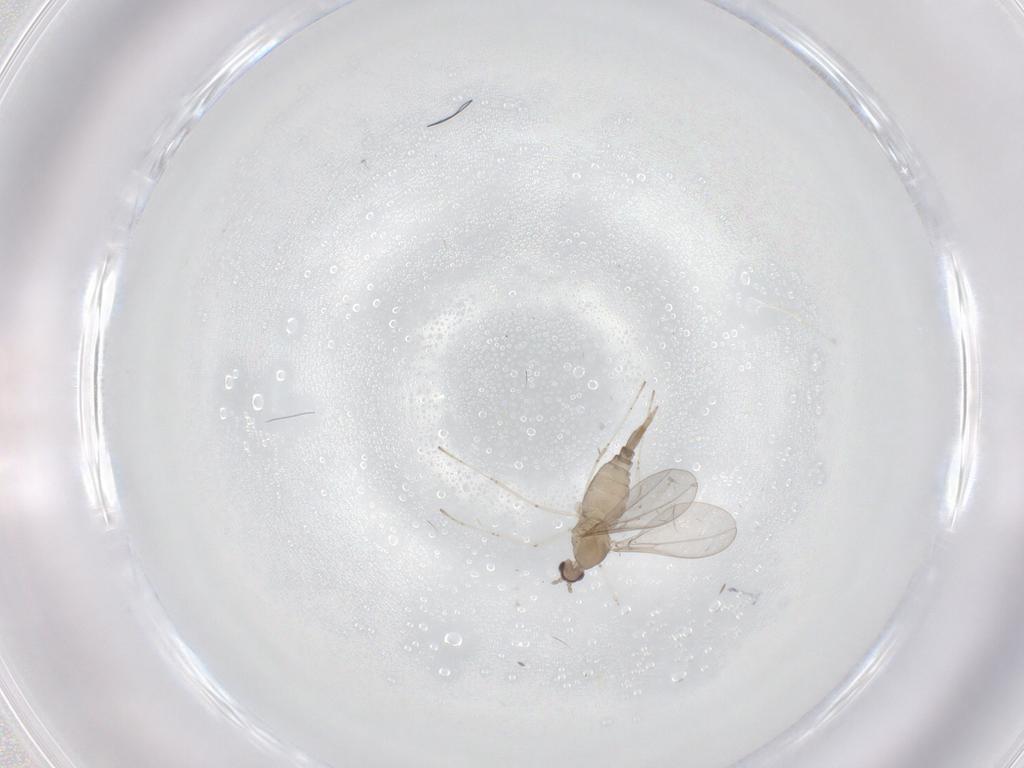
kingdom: Animalia
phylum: Arthropoda
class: Insecta
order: Diptera
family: Cecidomyiidae
